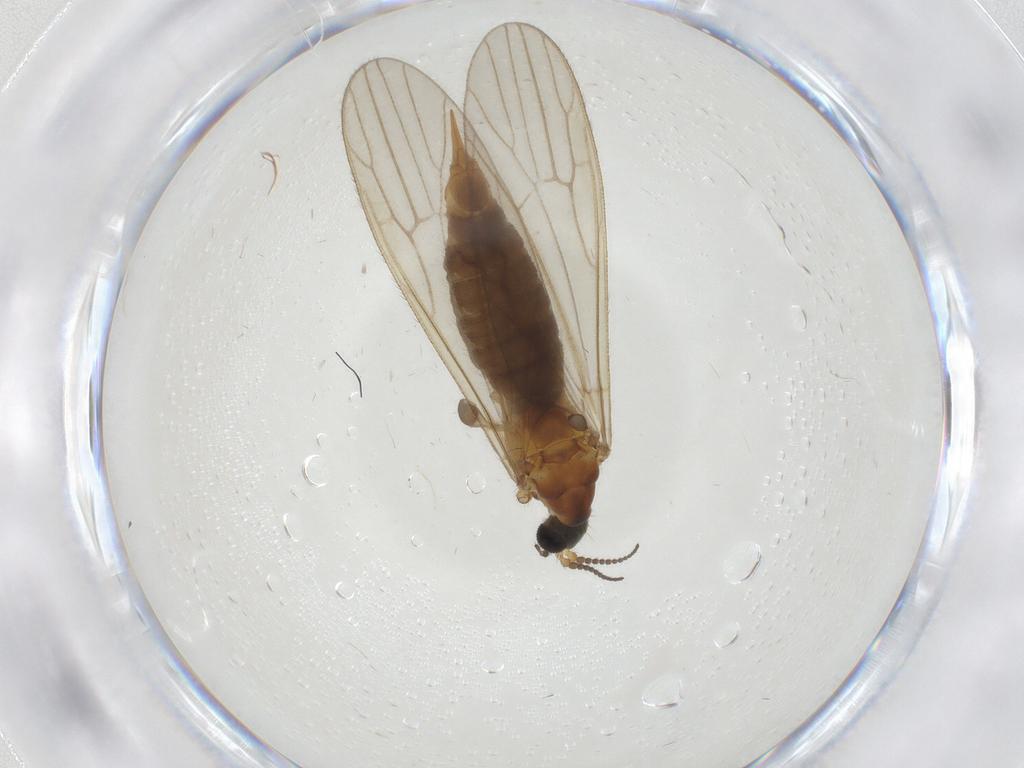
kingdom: Animalia
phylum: Arthropoda
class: Insecta
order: Diptera
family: Limoniidae
